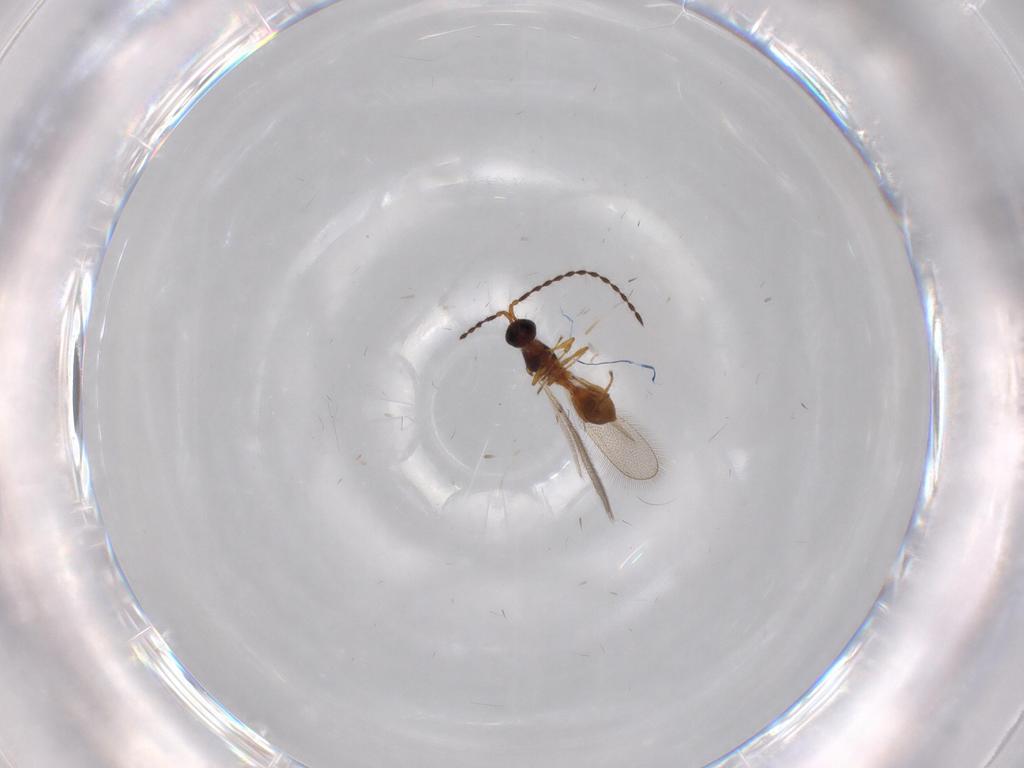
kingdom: Animalia
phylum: Arthropoda
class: Insecta
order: Hymenoptera
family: Diapriidae
